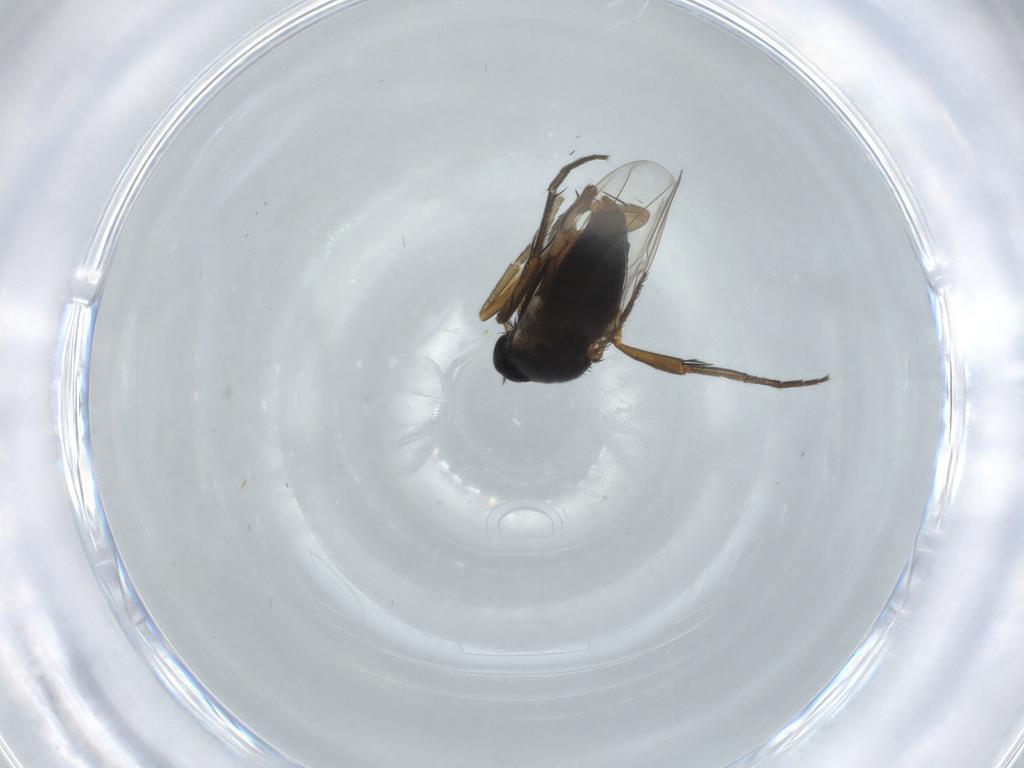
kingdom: Animalia
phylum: Arthropoda
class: Insecta
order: Diptera
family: Phoridae
